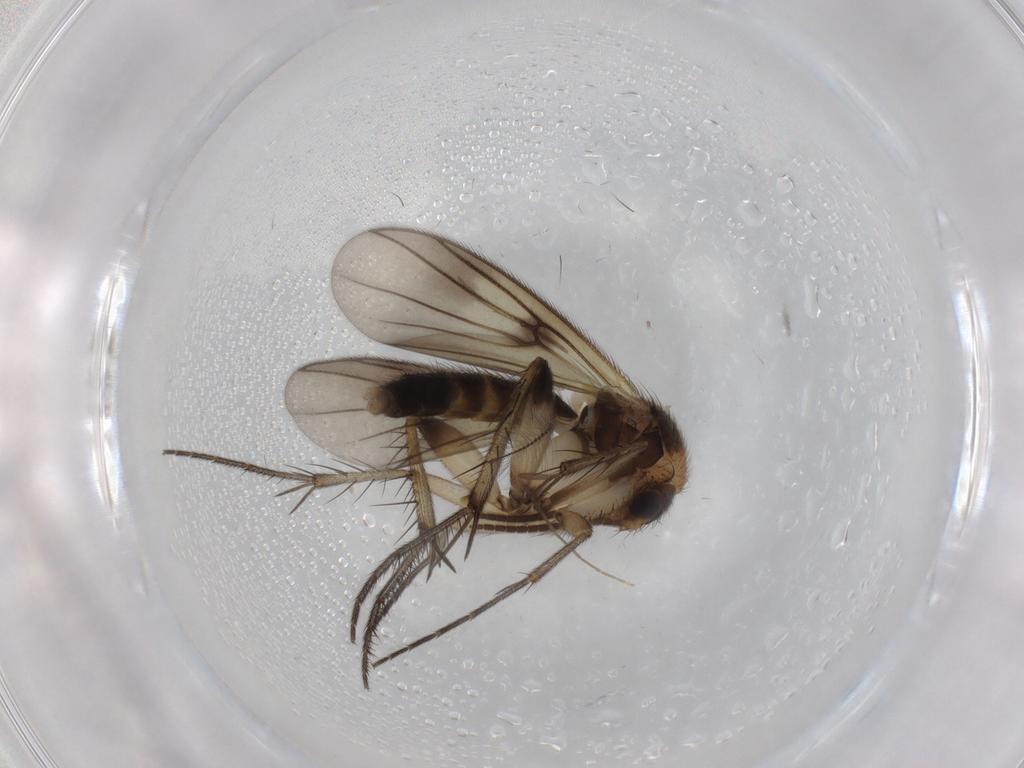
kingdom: Animalia
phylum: Arthropoda
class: Insecta
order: Diptera
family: Mycetophilidae
